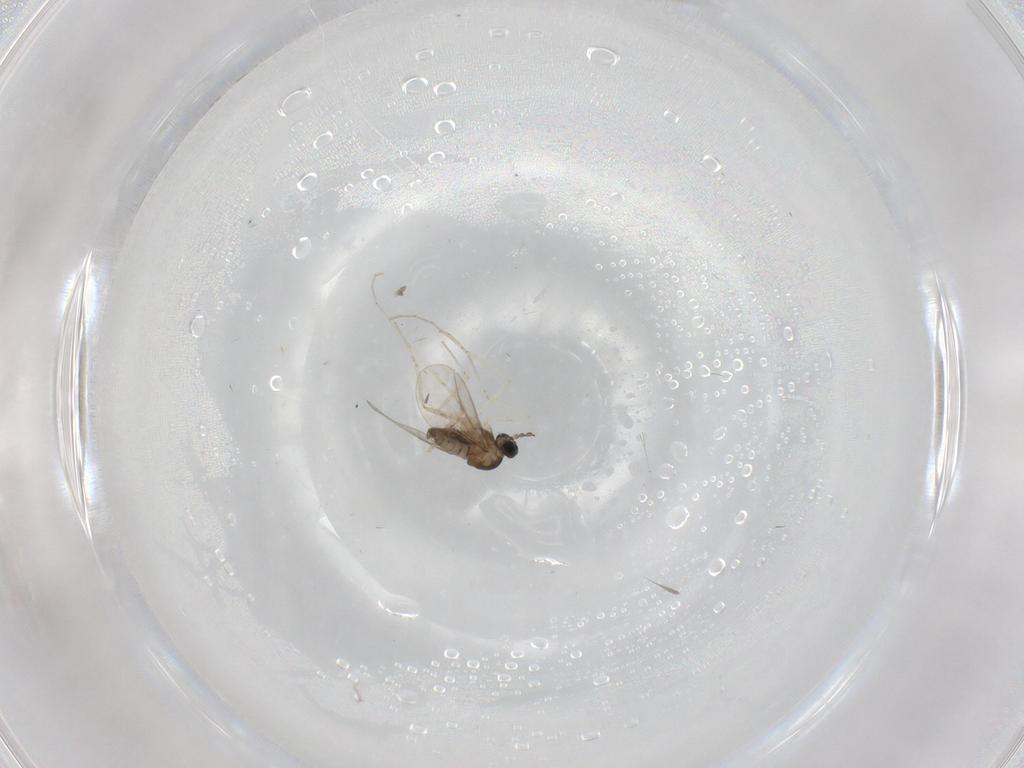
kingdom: Animalia
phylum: Arthropoda
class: Insecta
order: Diptera
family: Cecidomyiidae
